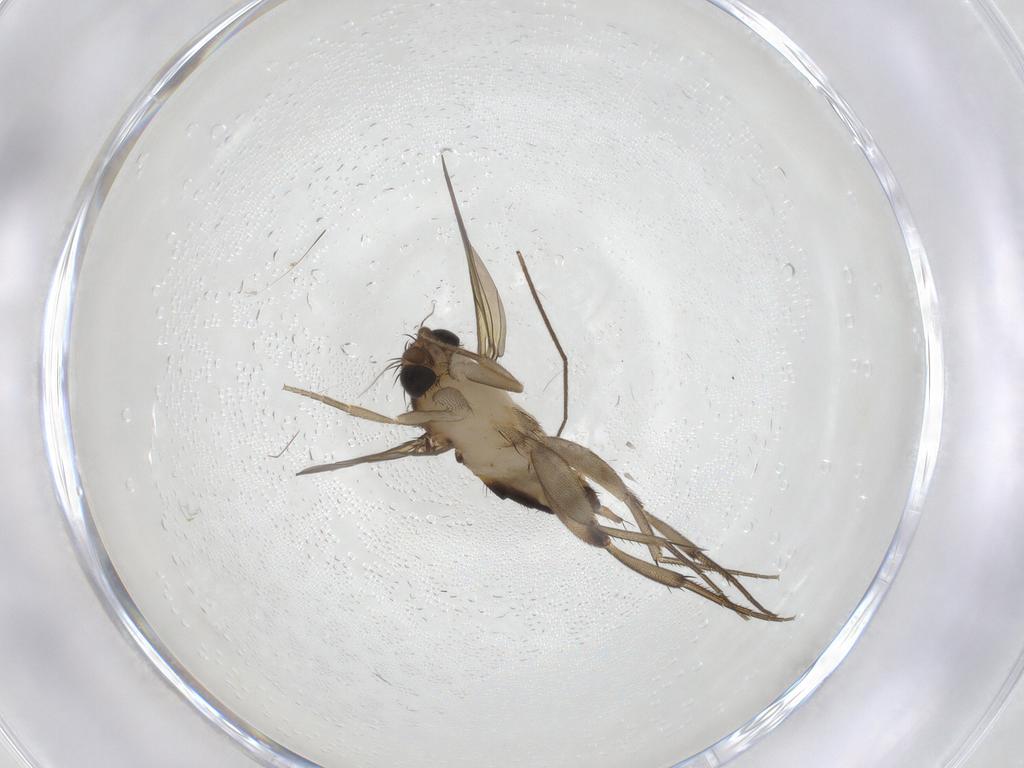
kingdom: Animalia
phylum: Arthropoda
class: Insecta
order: Diptera
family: Phoridae
